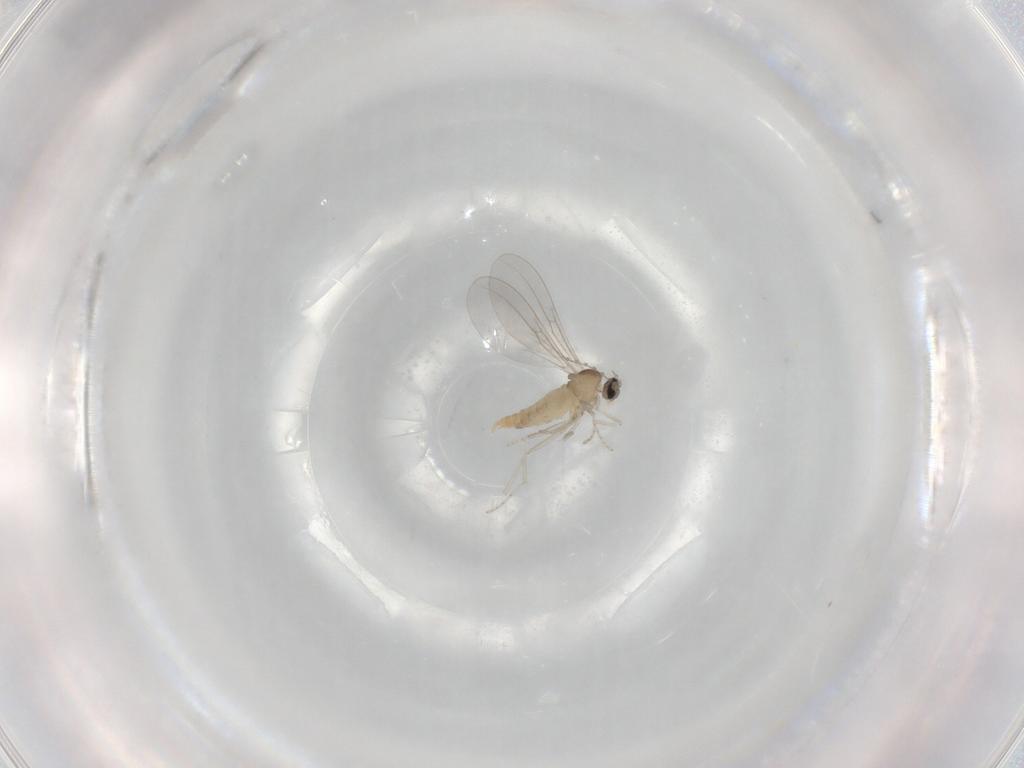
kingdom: Animalia
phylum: Arthropoda
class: Insecta
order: Diptera
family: Cecidomyiidae
